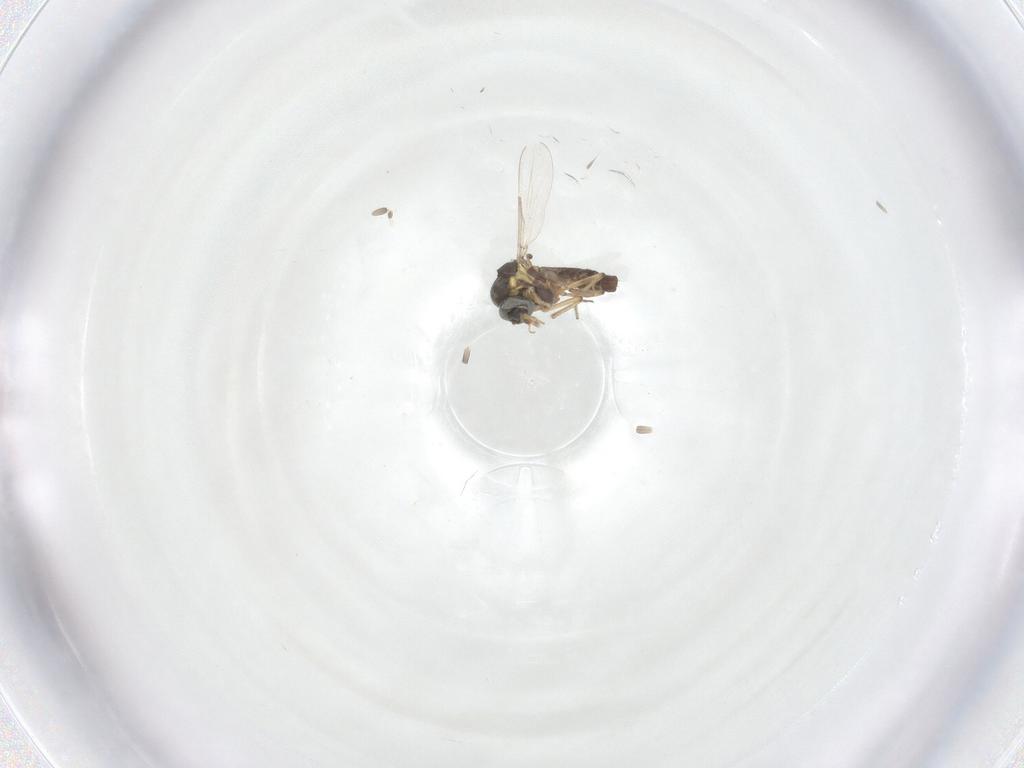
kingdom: Animalia
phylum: Arthropoda
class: Insecta
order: Diptera
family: Ceratopogonidae
